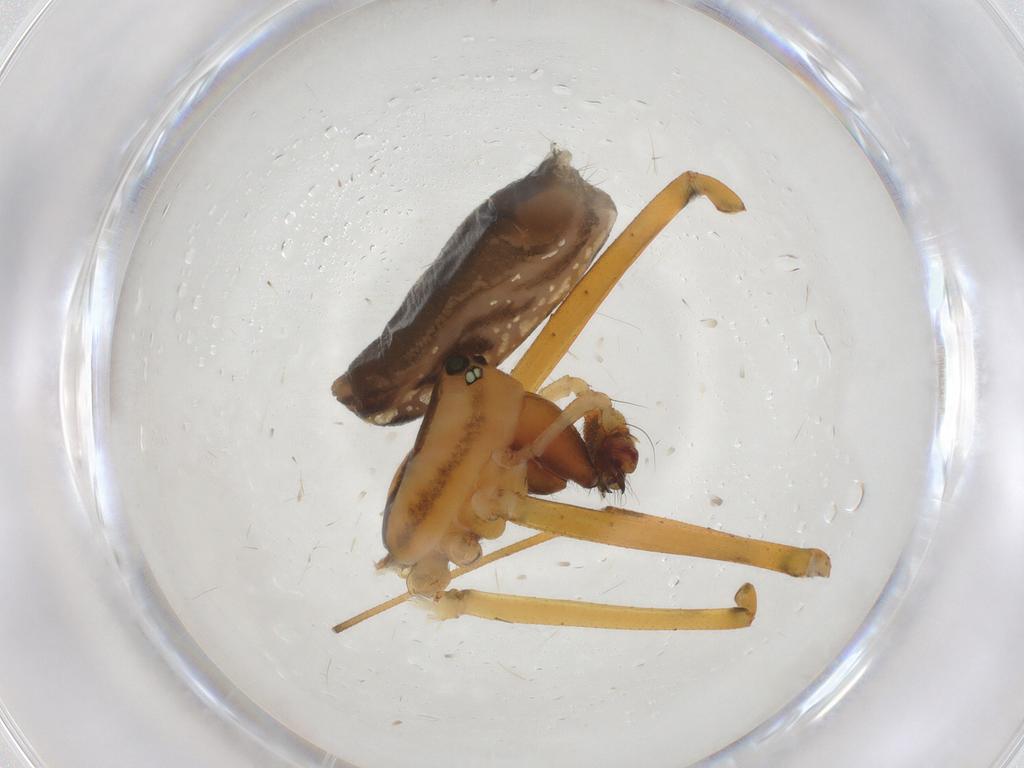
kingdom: Animalia
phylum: Arthropoda
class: Arachnida
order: Araneae
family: Linyphiidae
